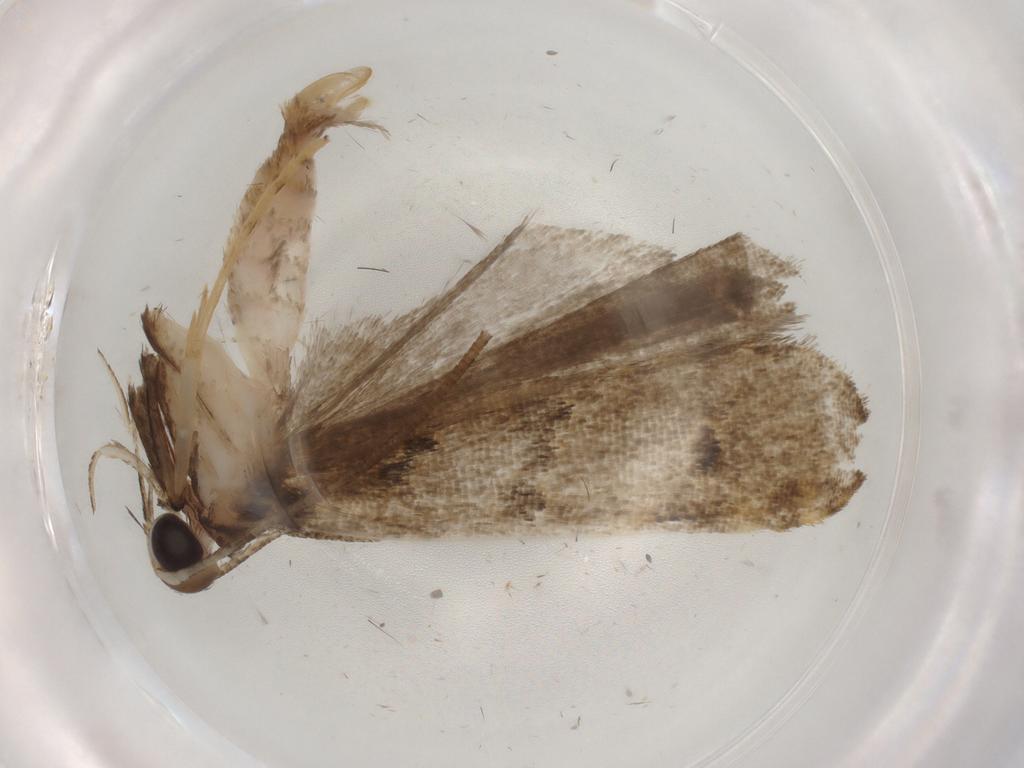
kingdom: Animalia
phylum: Arthropoda
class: Insecta
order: Lepidoptera
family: Cosmopterigidae
